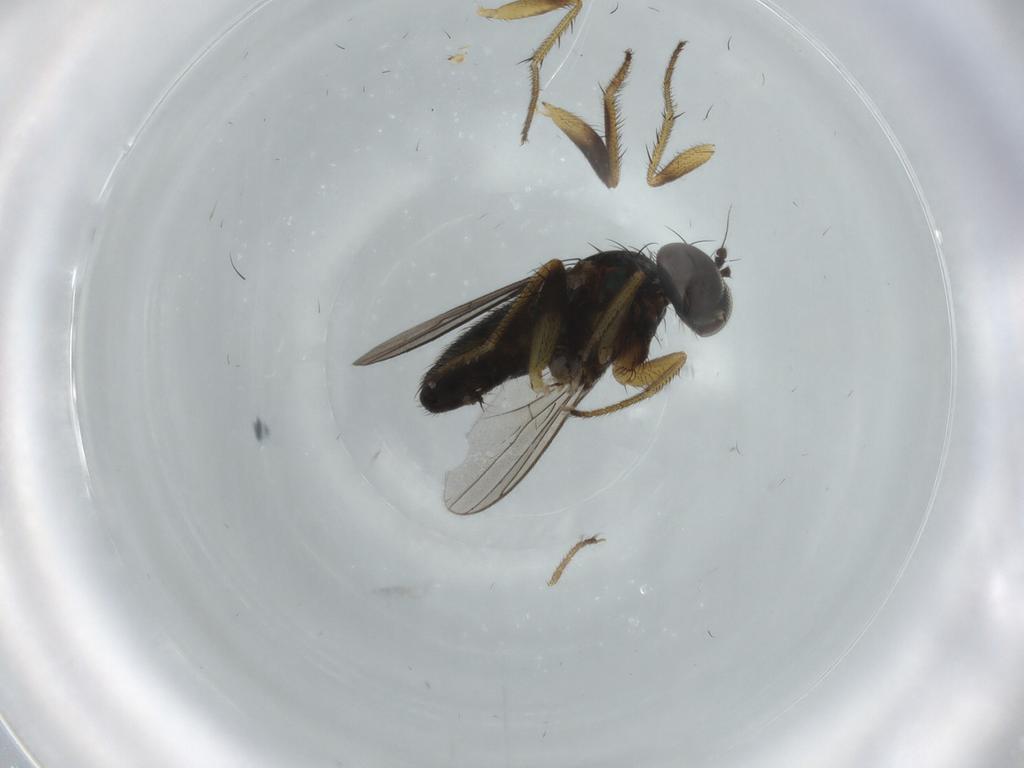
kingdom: Animalia
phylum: Arthropoda
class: Insecta
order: Diptera
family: Dolichopodidae
